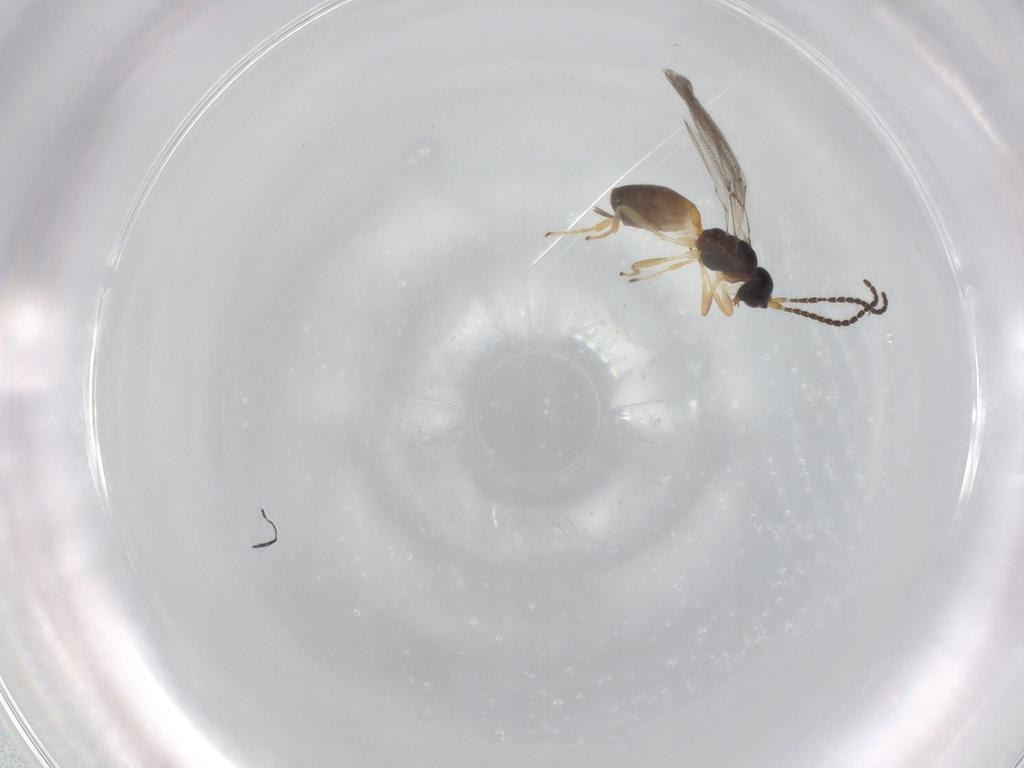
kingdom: Animalia
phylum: Arthropoda
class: Insecta
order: Hymenoptera
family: Braconidae
